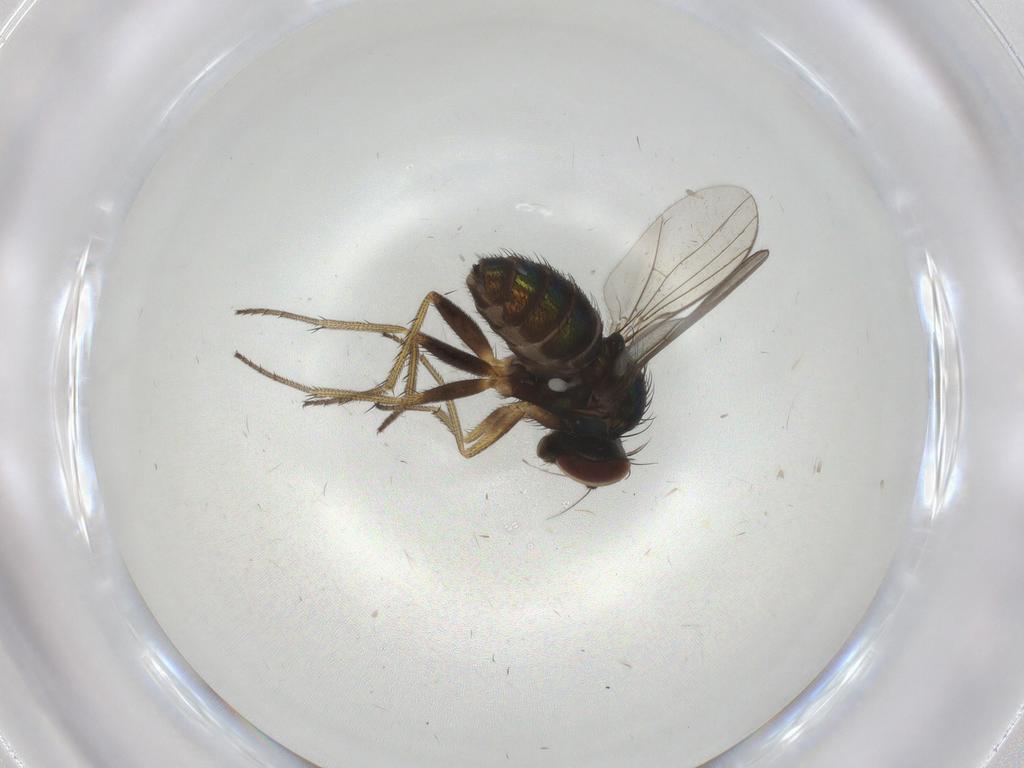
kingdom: Animalia
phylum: Arthropoda
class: Insecta
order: Diptera
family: Dolichopodidae
